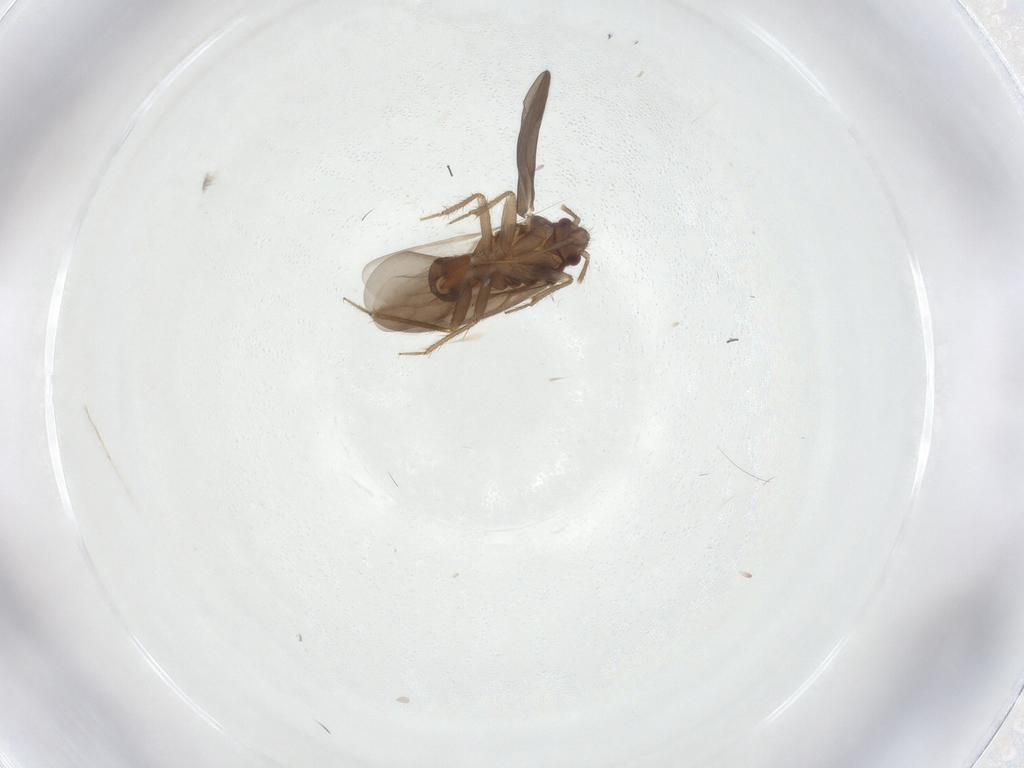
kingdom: Animalia
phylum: Arthropoda
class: Insecta
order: Hemiptera
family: Ceratocombidae
